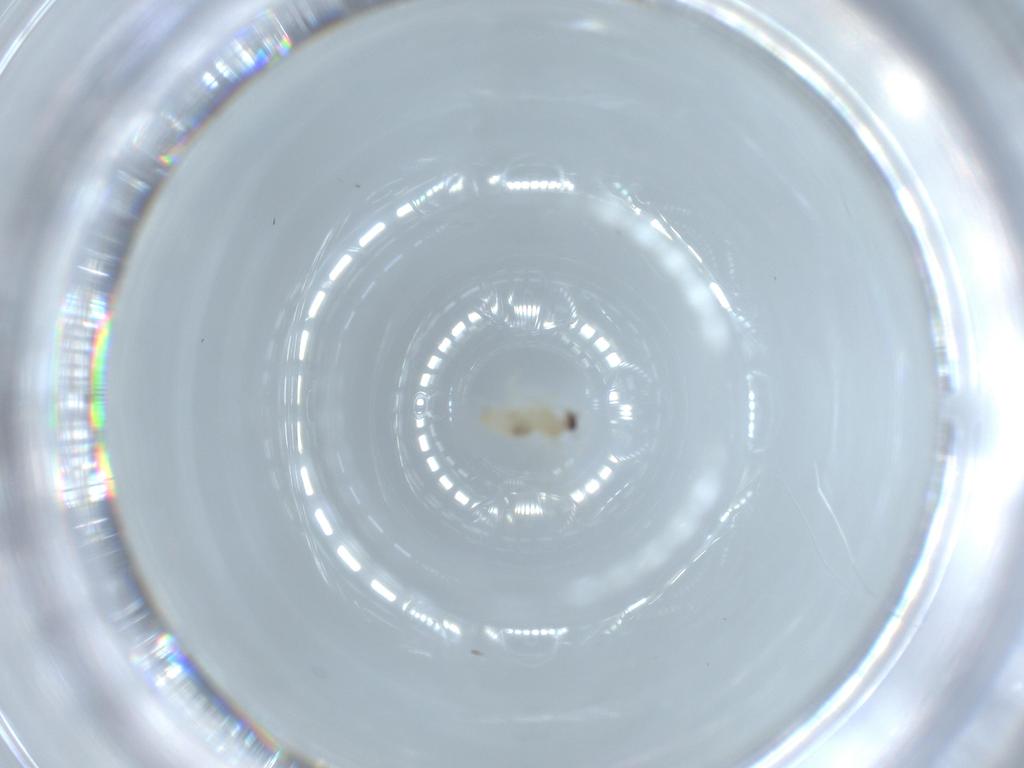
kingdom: Animalia
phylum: Arthropoda
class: Insecta
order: Diptera
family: Cecidomyiidae
